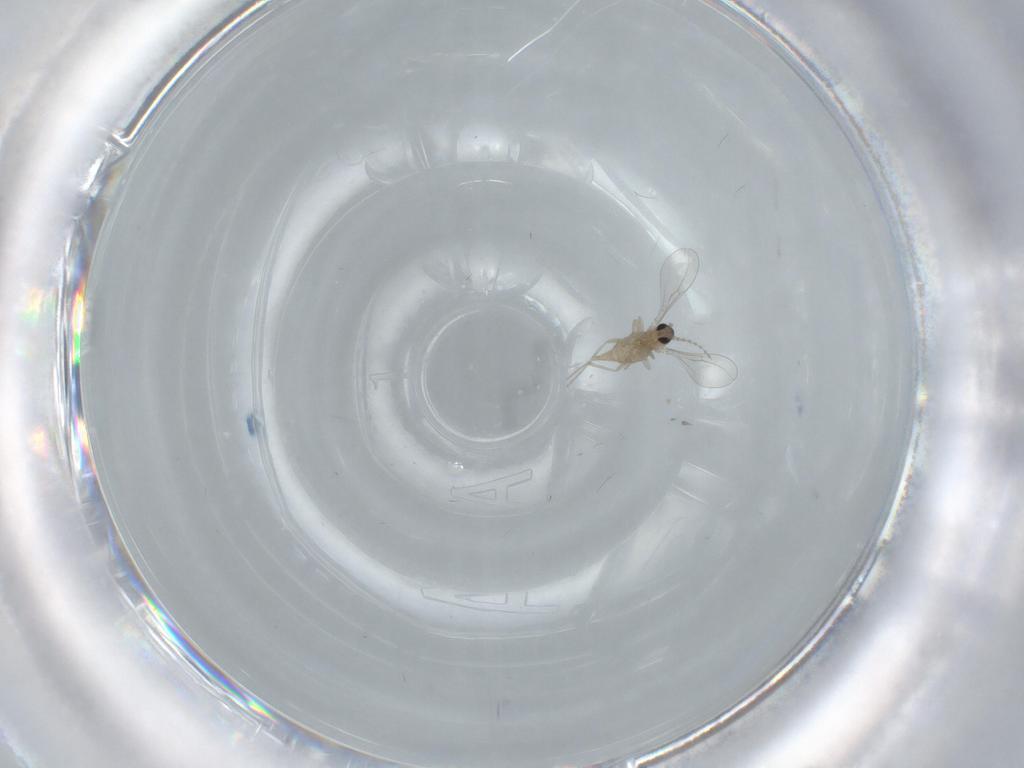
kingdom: Animalia
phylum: Arthropoda
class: Insecta
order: Diptera
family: Cecidomyiidae
